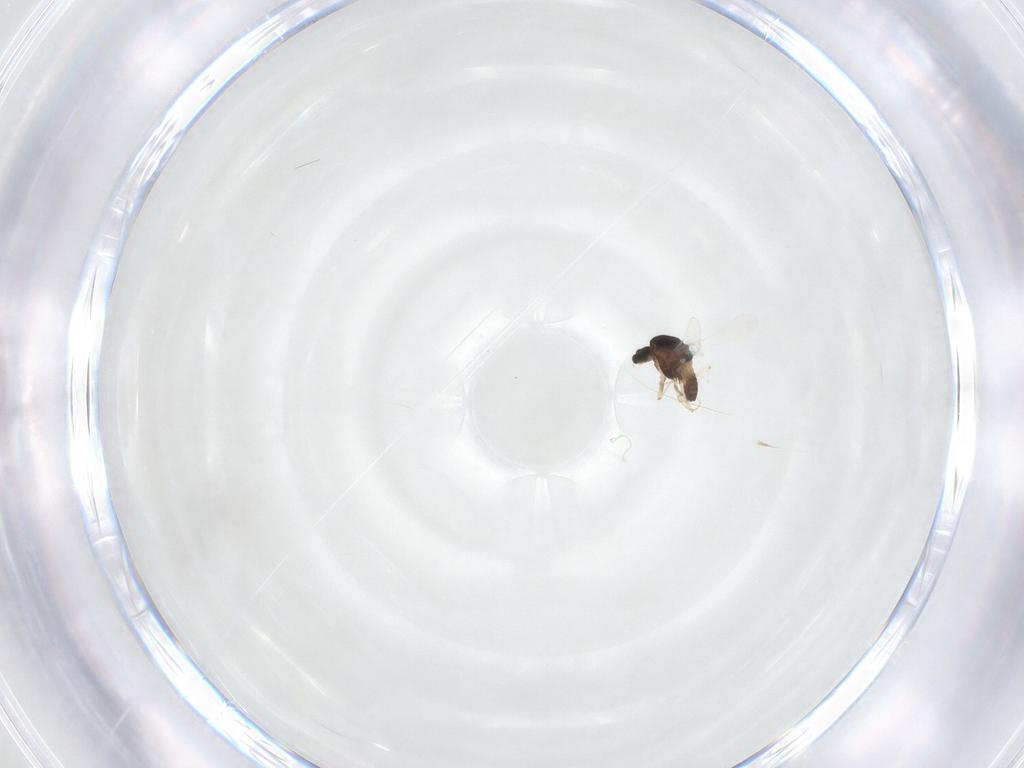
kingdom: Animalia
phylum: Arthropoda
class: Insecta
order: Diptera
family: Chironomidae
